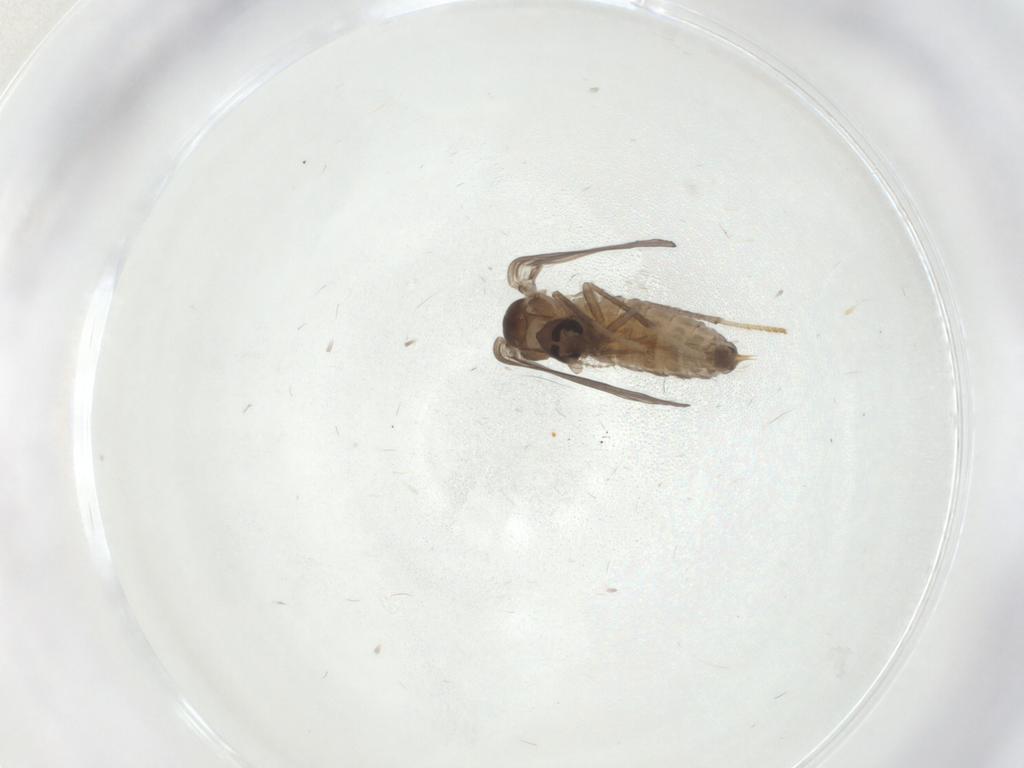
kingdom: Animalia
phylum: Arthropoda
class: Insecta
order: Diptera
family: Psychodidae
